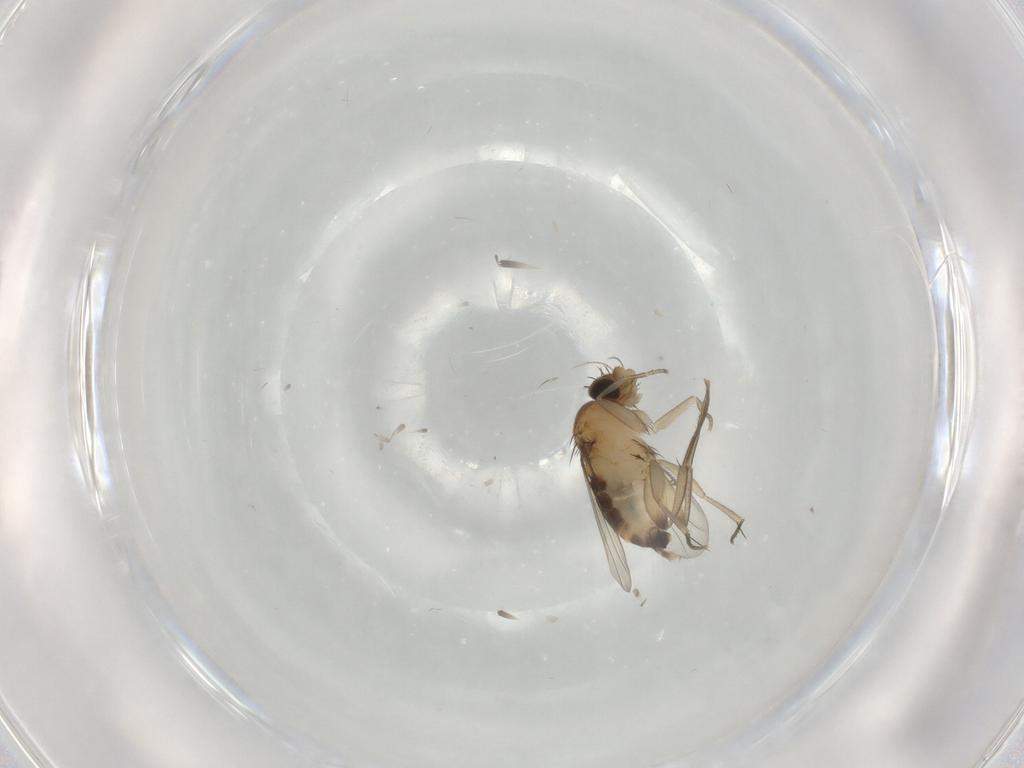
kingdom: Animalia
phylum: Arthropoda
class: Insecta
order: Diptera
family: Phoridae
